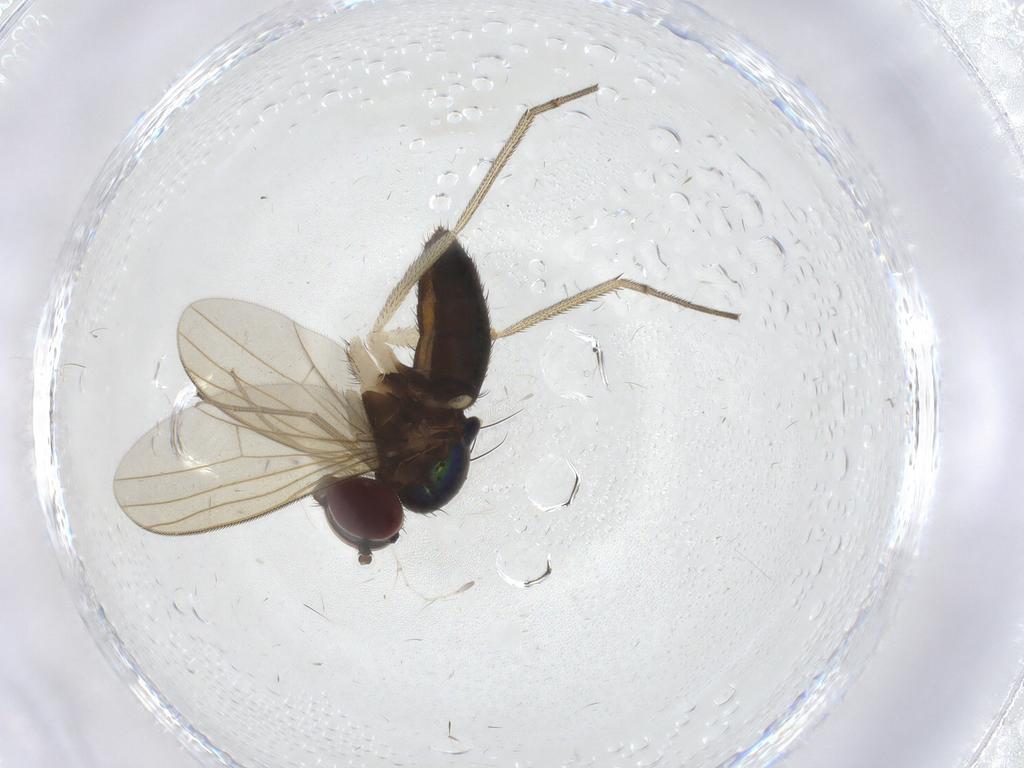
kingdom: Animalia
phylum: Arthropoda
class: Insecta
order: Diptera
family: Dolichopodidae
